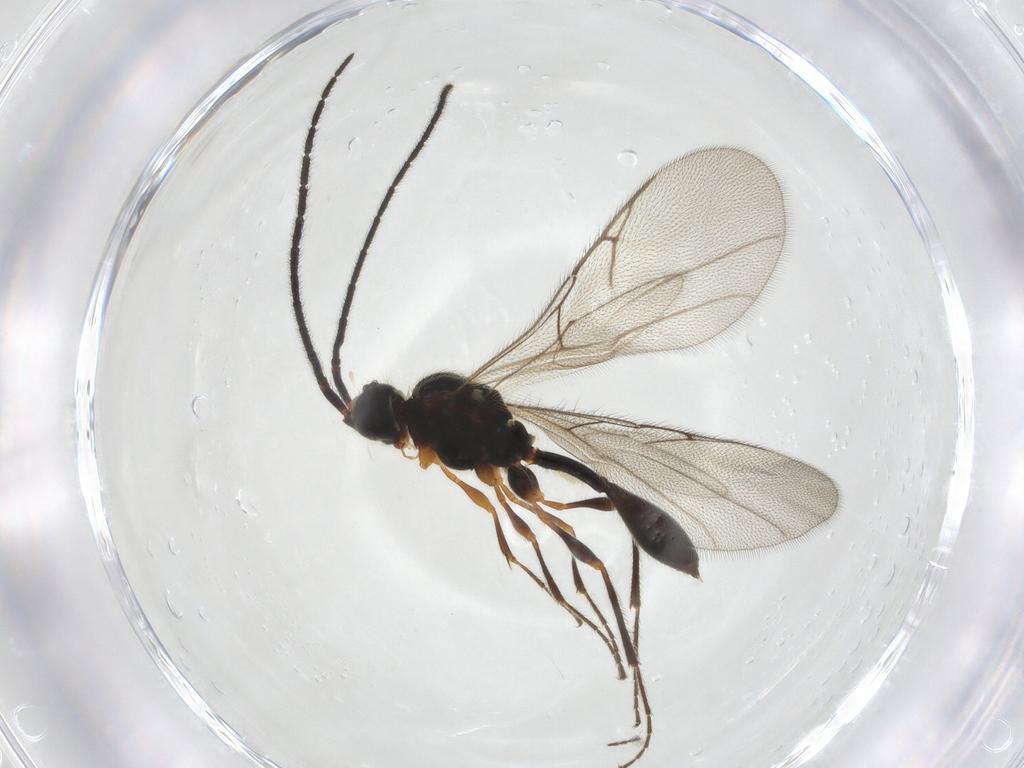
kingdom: Animalia
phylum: Arthropoda
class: Insecta
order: Hymenoptera
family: Diapriidae
